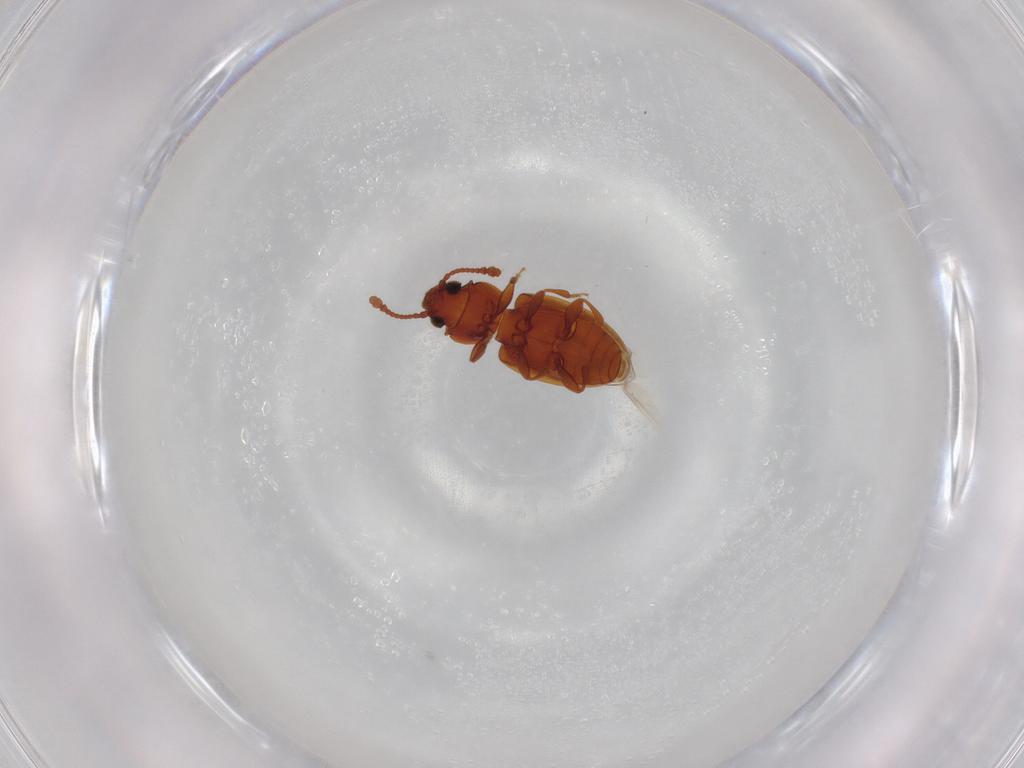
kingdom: Animalia
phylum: Arthropoda
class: Insecta
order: Coleoptera
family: Silvanidae
